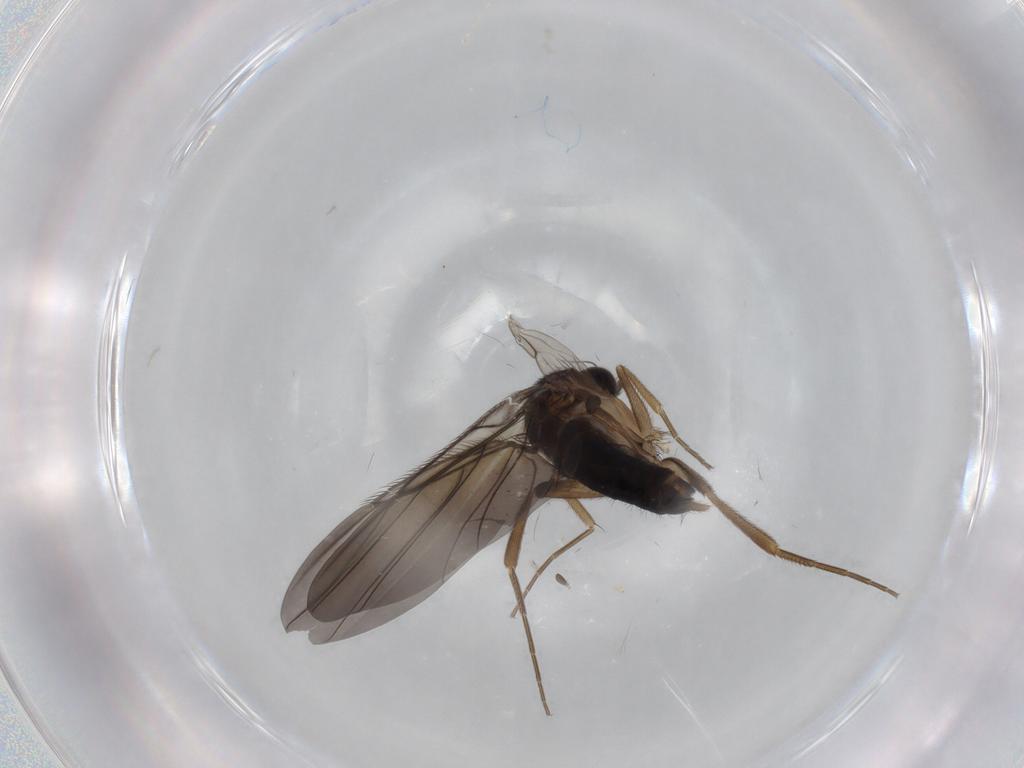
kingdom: Animalia
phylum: Arthropoda
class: Insecta
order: Diptera
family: Phoridae
